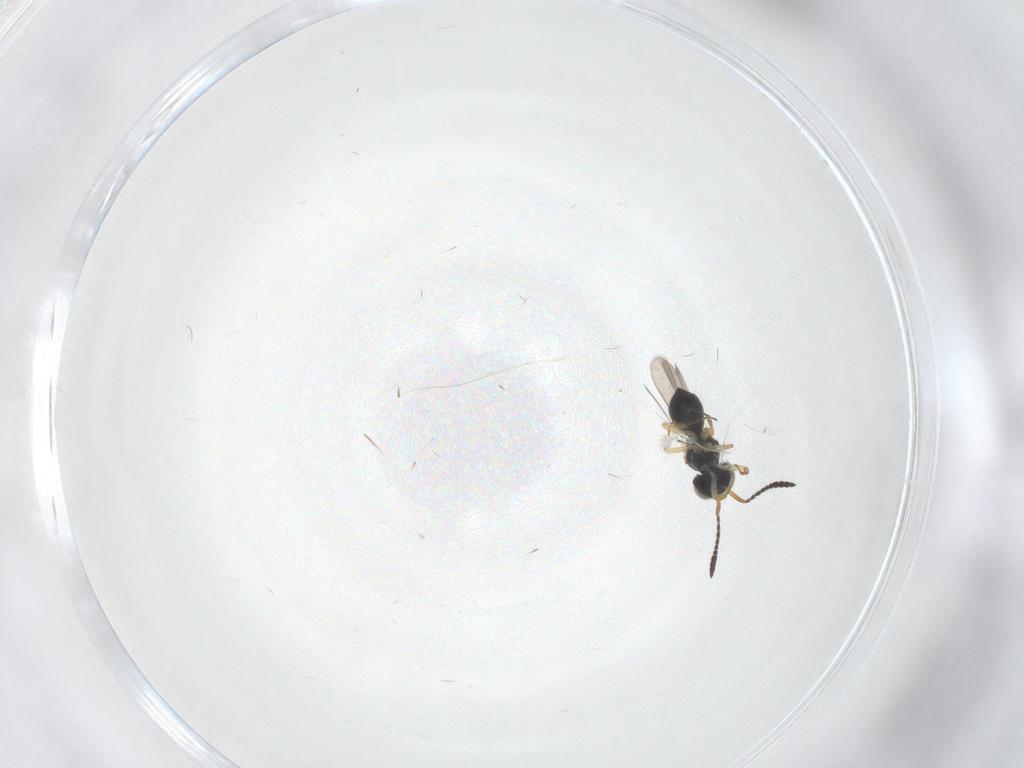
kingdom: Animalia
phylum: Arthropoda
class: Insecta
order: Hymenoptera
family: Scelionidae
